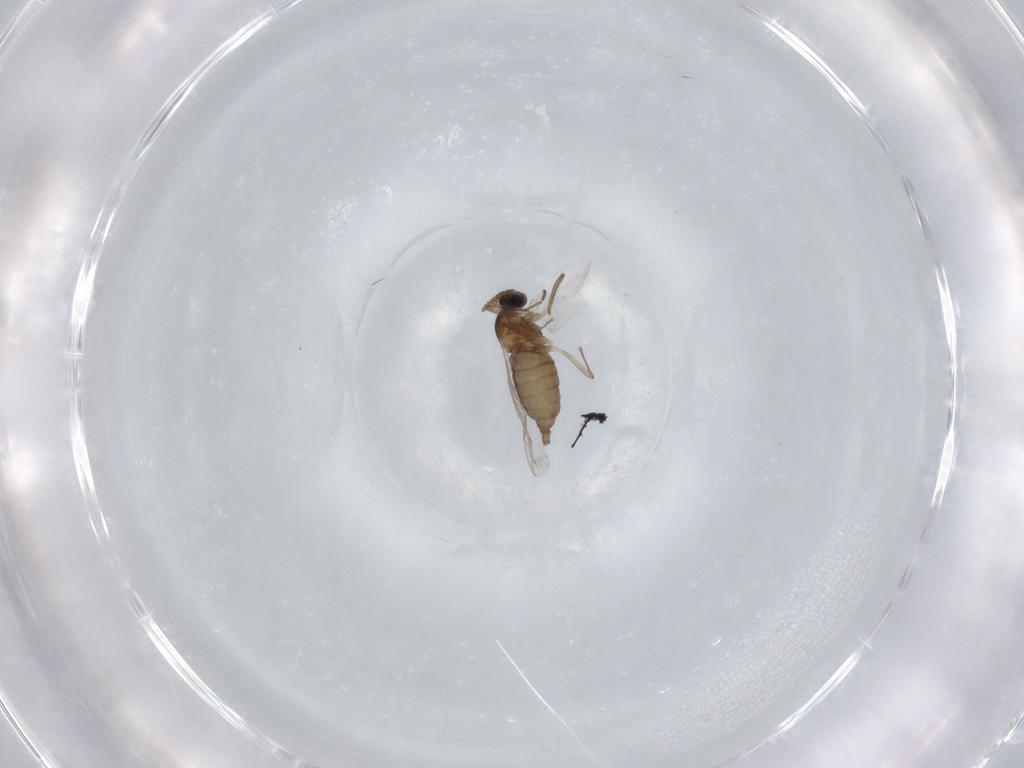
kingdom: Animalia
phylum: Arthropoda
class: Insecta
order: Diptera
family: Cecidomyiidae
